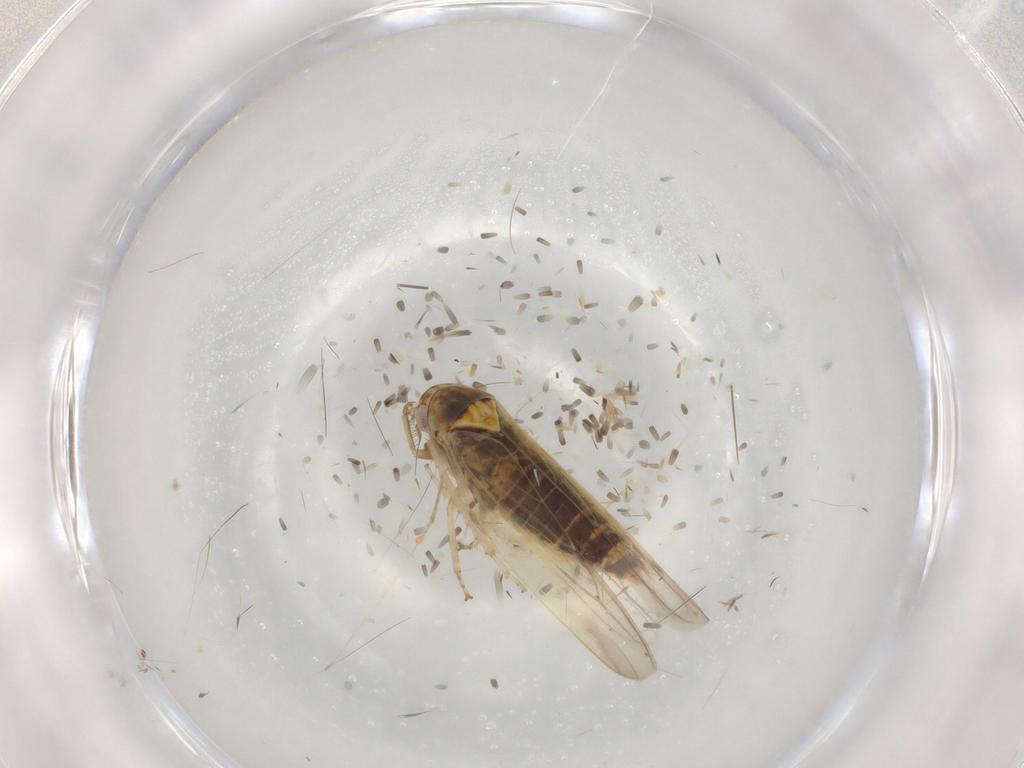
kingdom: Animalia
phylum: Arthropoda
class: Insecta
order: Hemiptera
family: Cicadellidae
